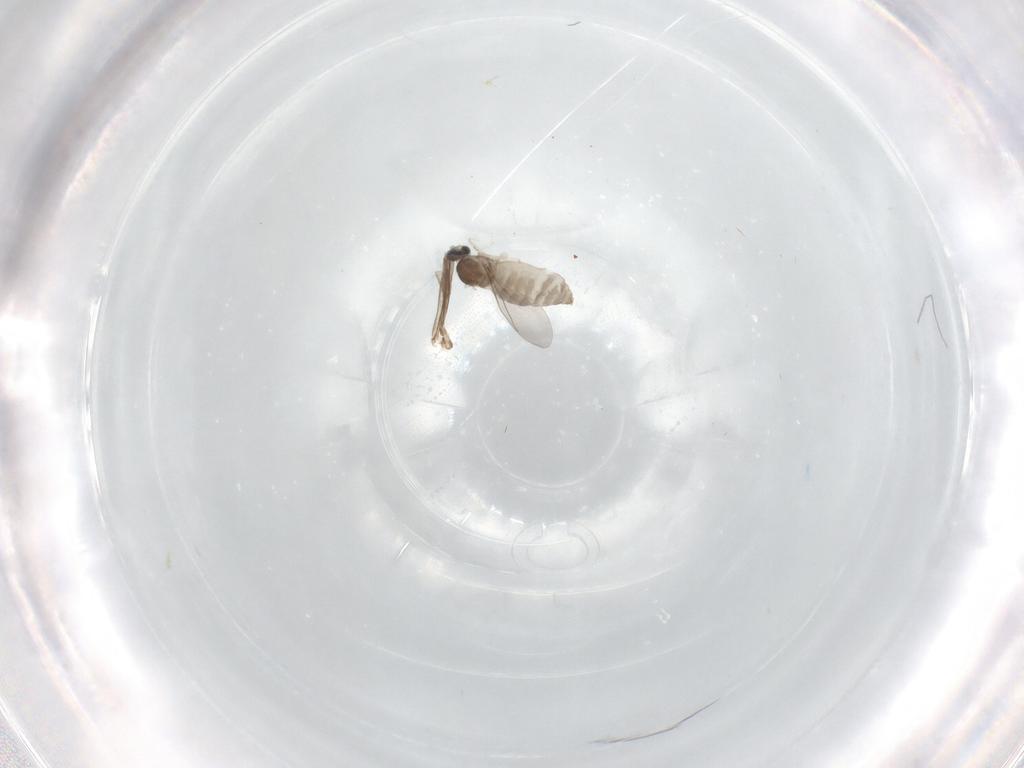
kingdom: Animalia
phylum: Arthropoda
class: Insecta
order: Diptera
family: Cecidomyiidae
